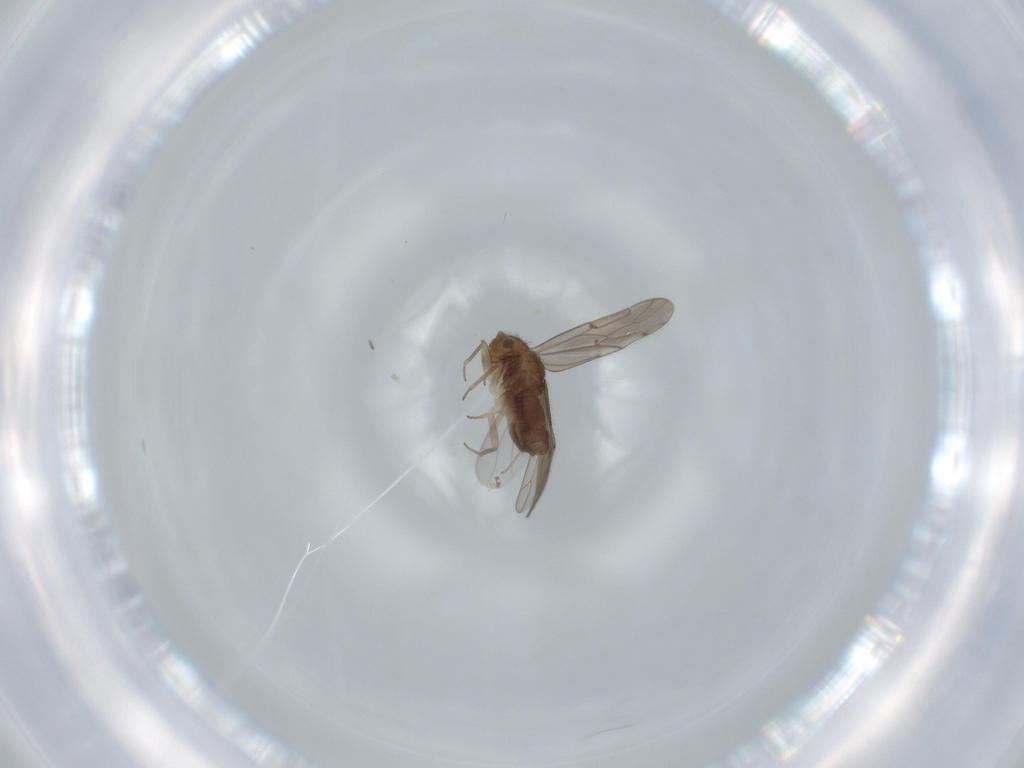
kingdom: Animalia
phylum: Arthropoda
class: Insecta
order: Psocodea
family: Ectopsocidae
